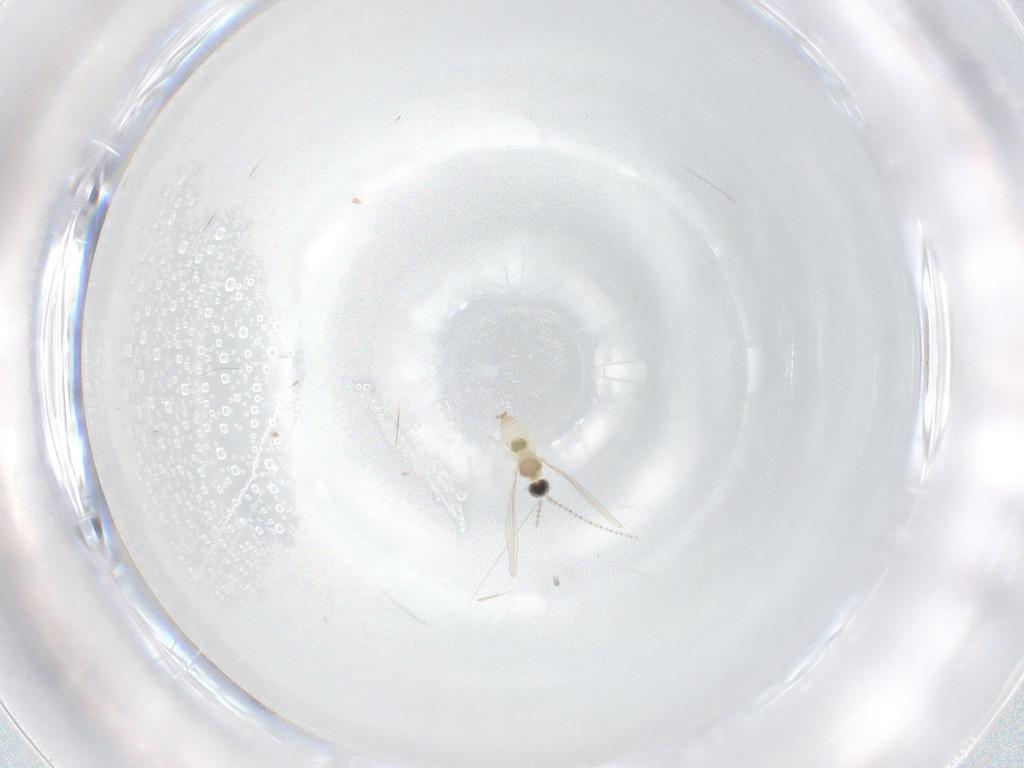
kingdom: Animalia
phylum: Arthropoda
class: Insecta
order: Diptera
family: Cecidomyiidae
